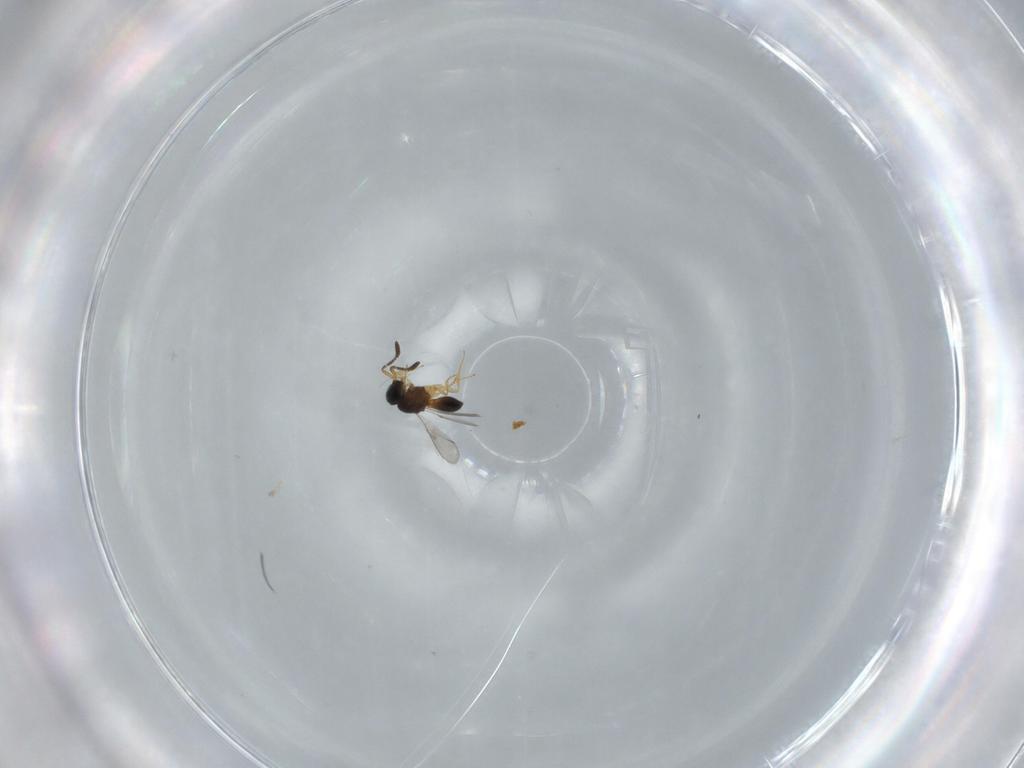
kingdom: Animalia
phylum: Arthropoda
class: Insecta
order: Hymenoptera
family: Scelionidae
